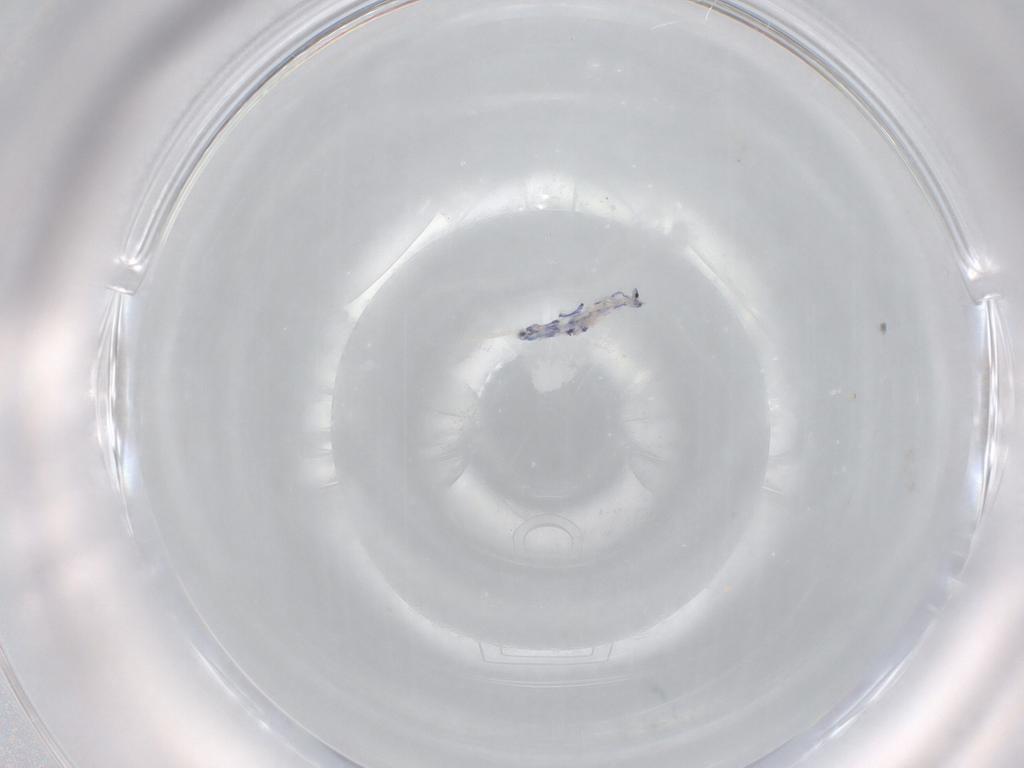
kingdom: Animalia
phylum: Arthropoda
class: Collembola
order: Entomobryomorpha
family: Entomobryidae
